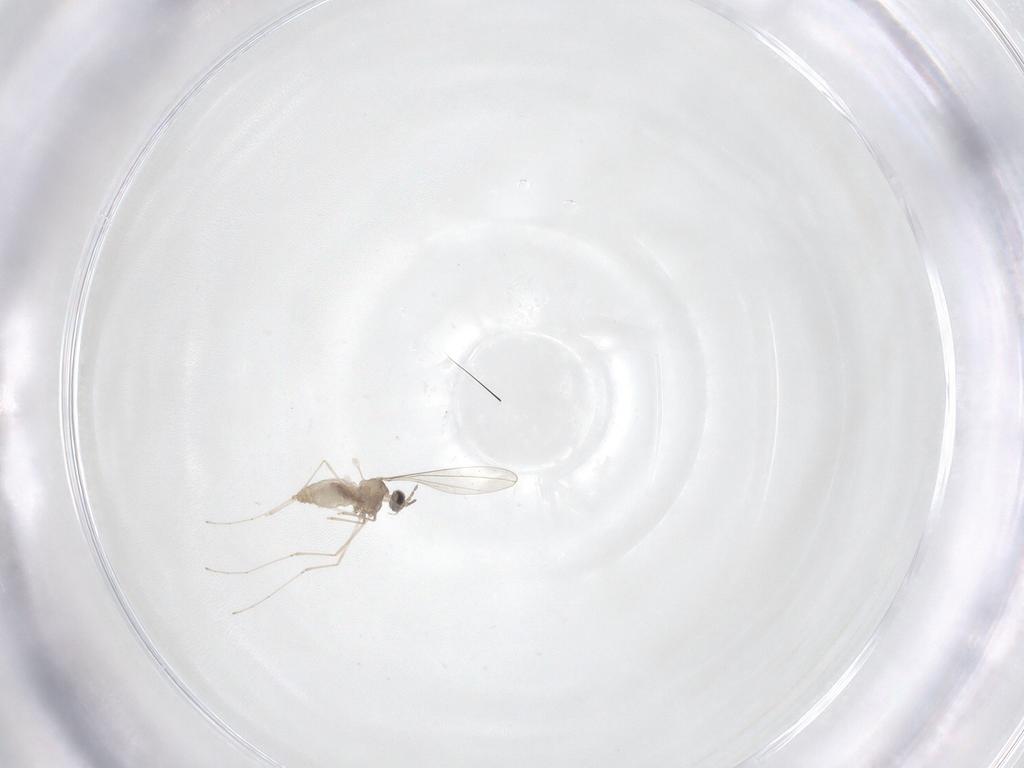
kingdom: Animalia
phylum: Arthropoda
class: Insecta
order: Diptera
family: Cecidomyiidae
